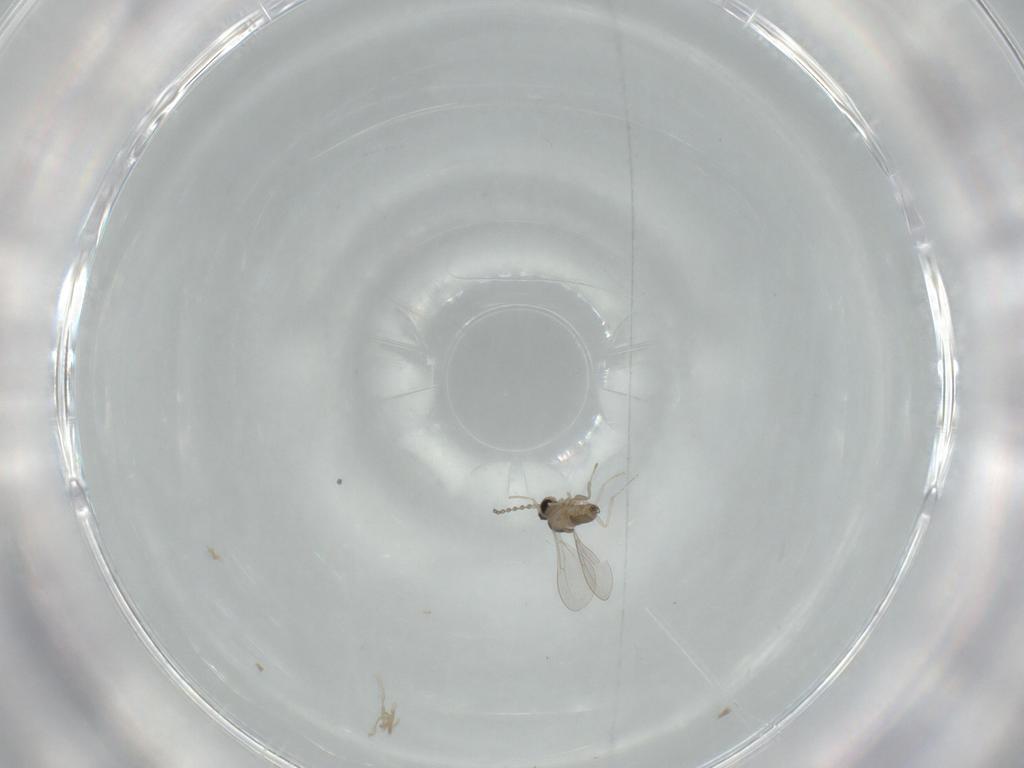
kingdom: Animalia
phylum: Arthropoda
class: Insecta
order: Diptera
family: Cecidomyiidae
